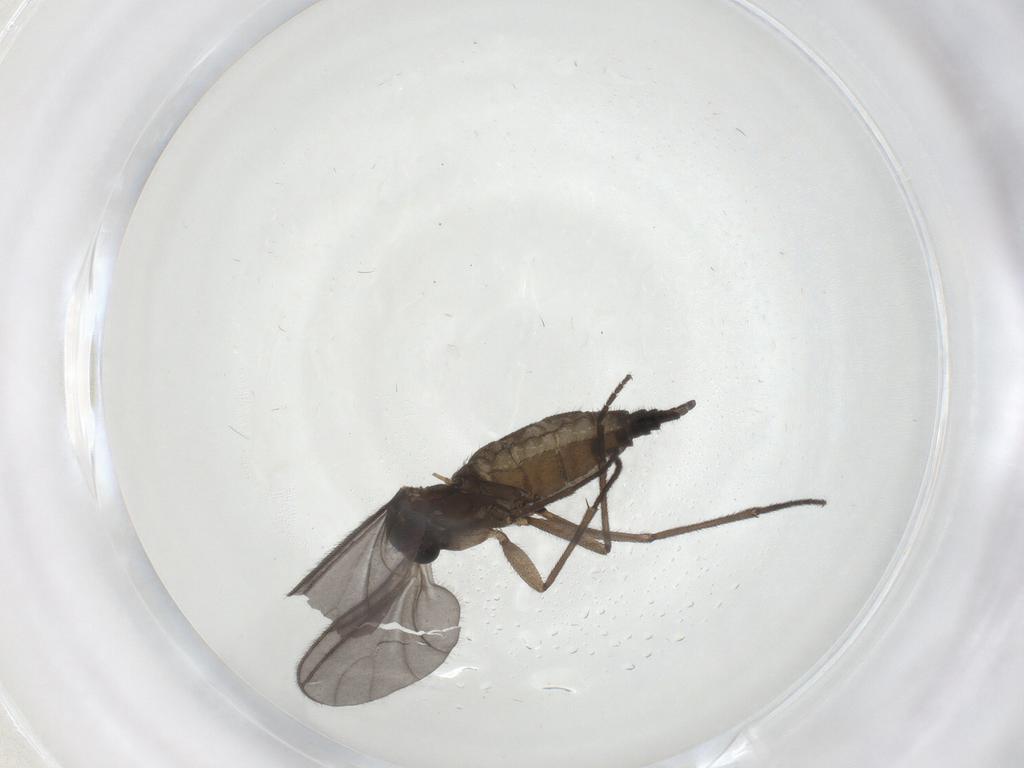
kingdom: Animalia
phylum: Arthropoda
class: Insecta
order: Diptera
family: Sciaridae
